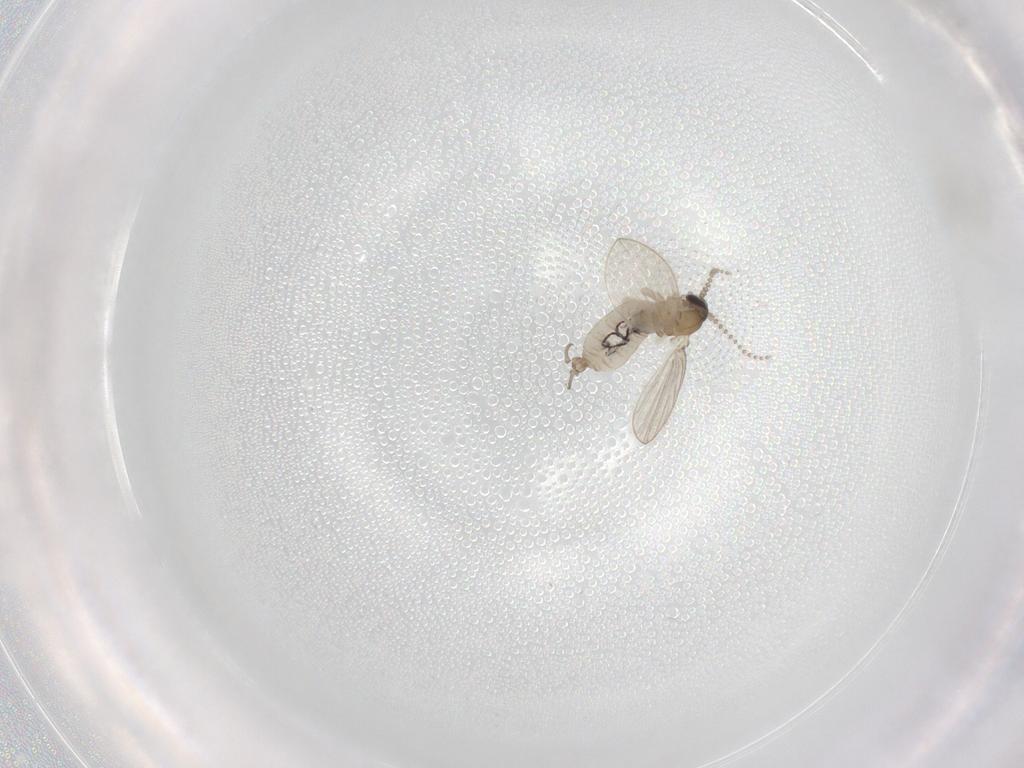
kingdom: Animalia
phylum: Arthropoda
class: Insecta
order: Diptera
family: Psychodidae
